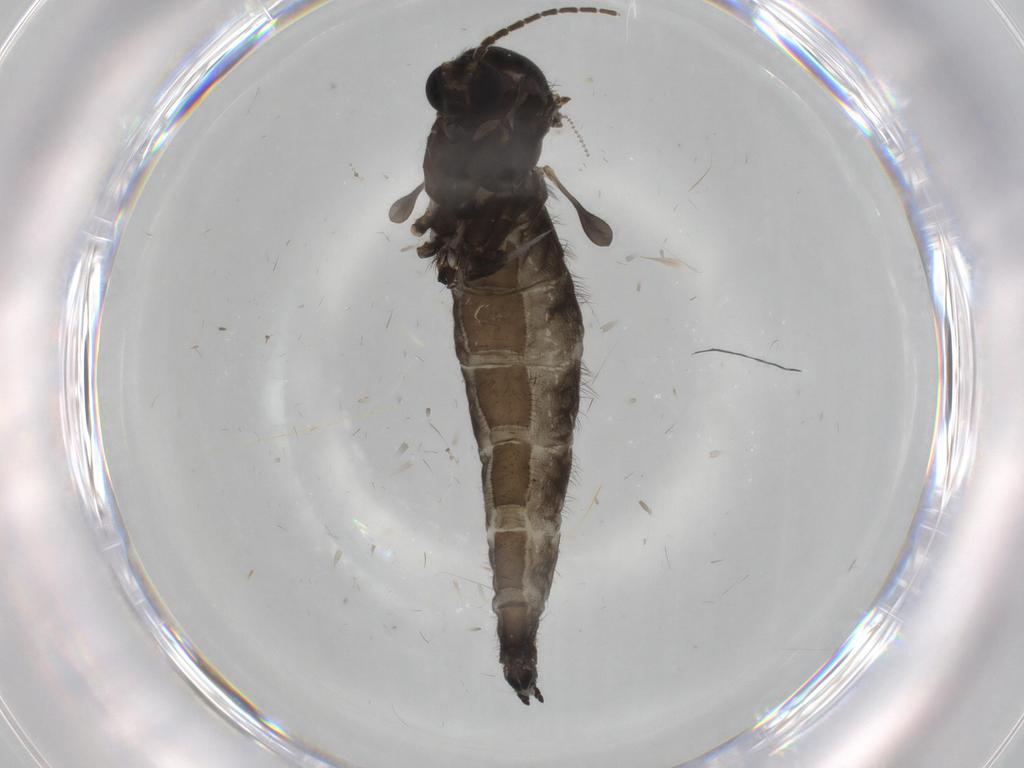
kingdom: Animalia
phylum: Arthropoda
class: Insecta
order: Diptera
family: Sciaridae
